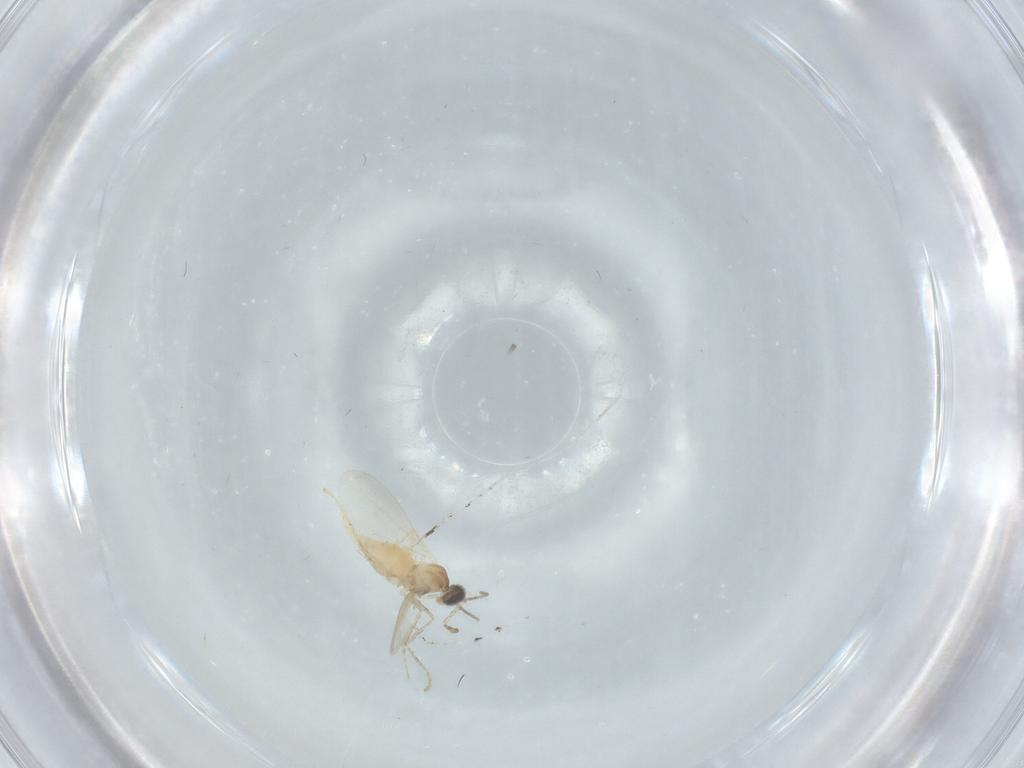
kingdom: Animalia
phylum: Arthropoda
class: Insecta
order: Diptera
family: Cecidomyiidae
